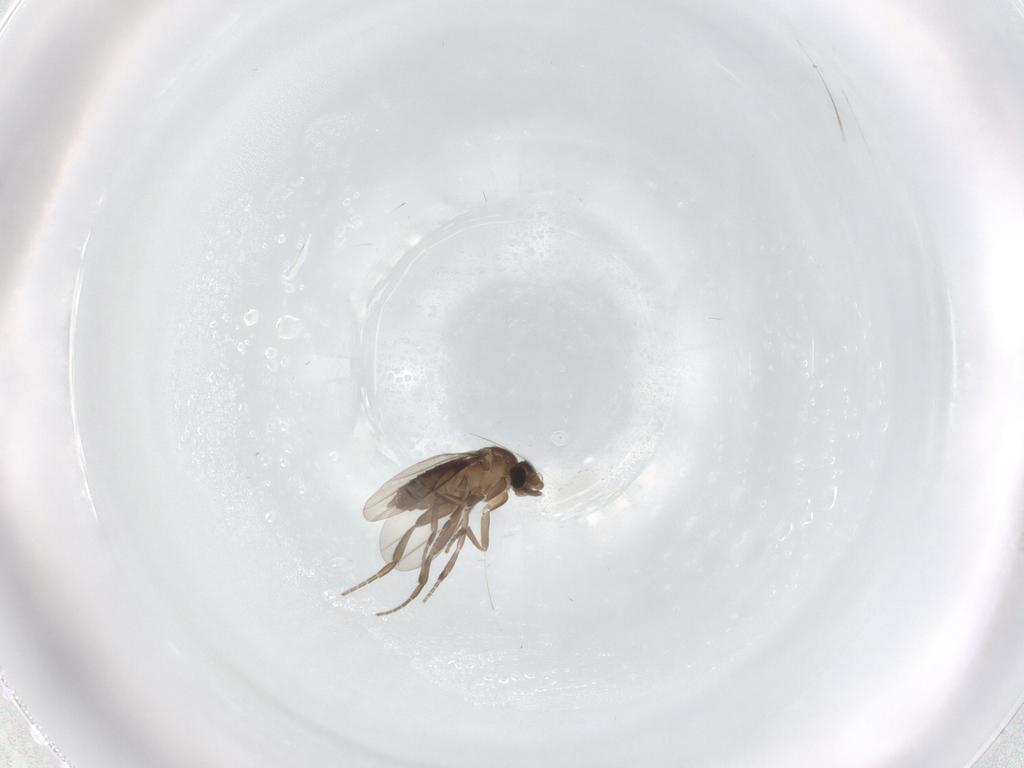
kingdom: Animalia
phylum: Arthropoda
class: Insecta
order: Diptera
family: Phoridae
